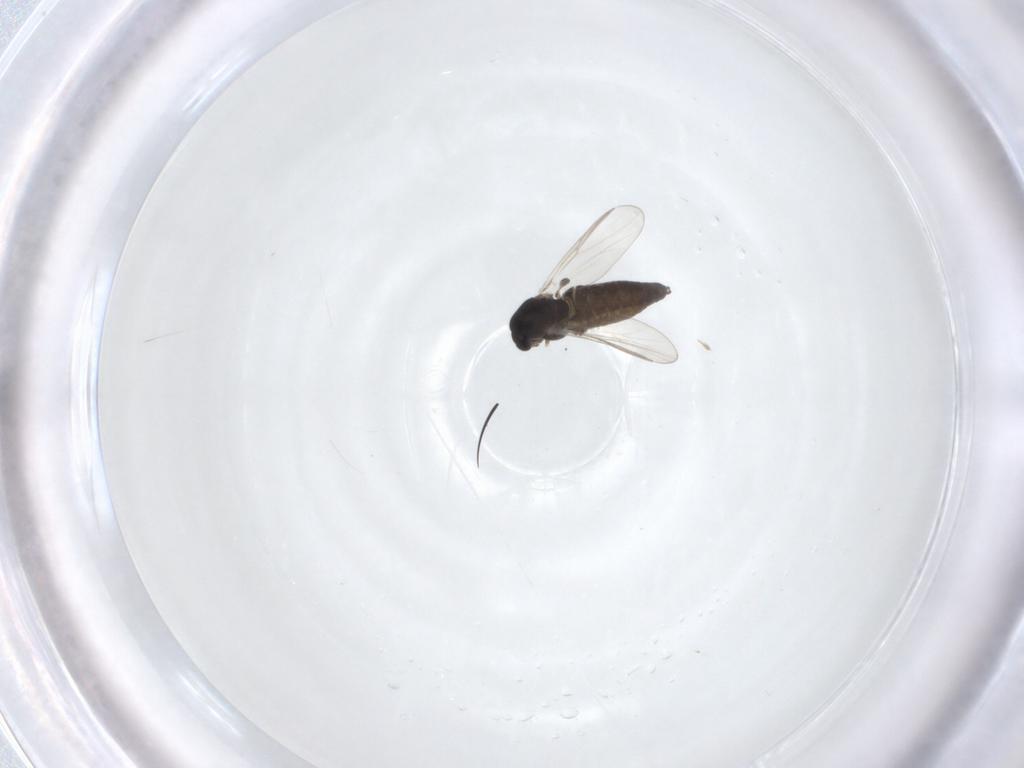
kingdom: Animalia
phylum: Arthropoda
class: Insecta
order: Diptera
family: Chironomidae
